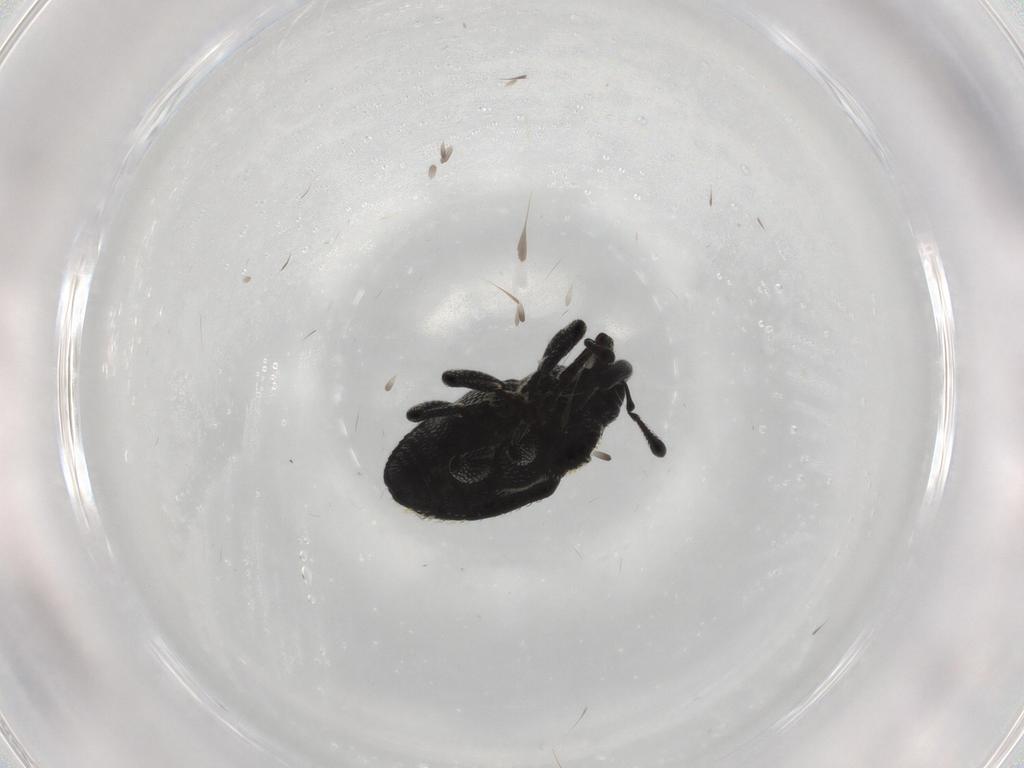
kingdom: Animalia
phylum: Arthropoda
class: Insecta
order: Coleoptera
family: Curculionidae
